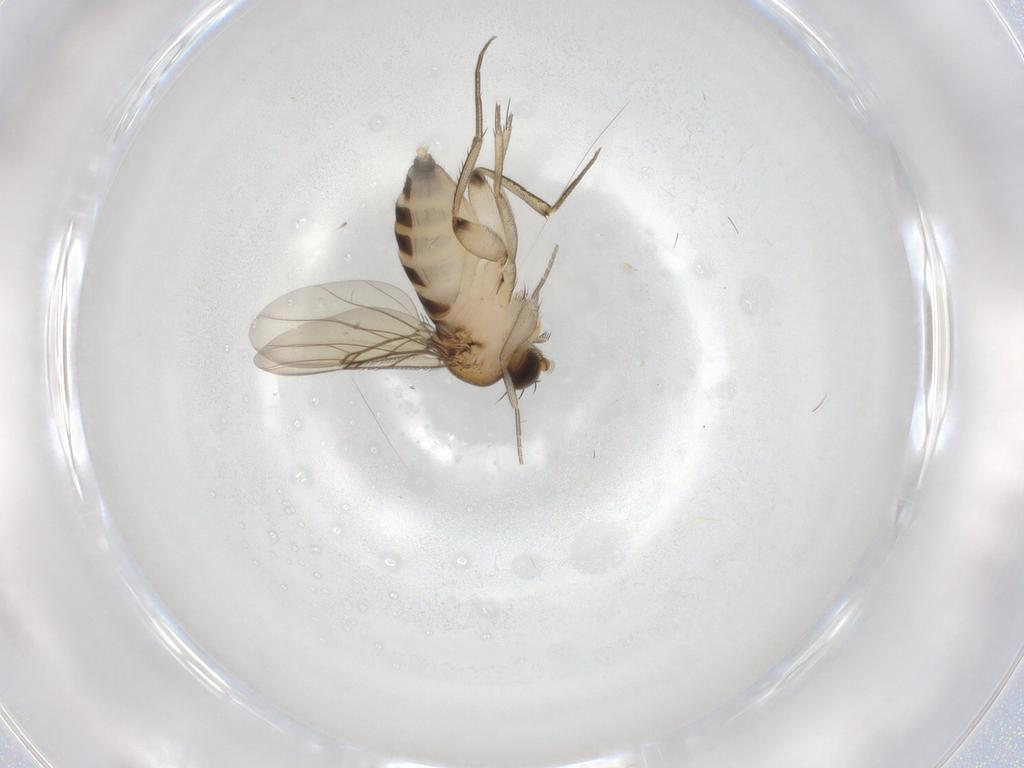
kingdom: Animalia
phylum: Arthropoda
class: Insecta
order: Diptera
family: Phoridae
